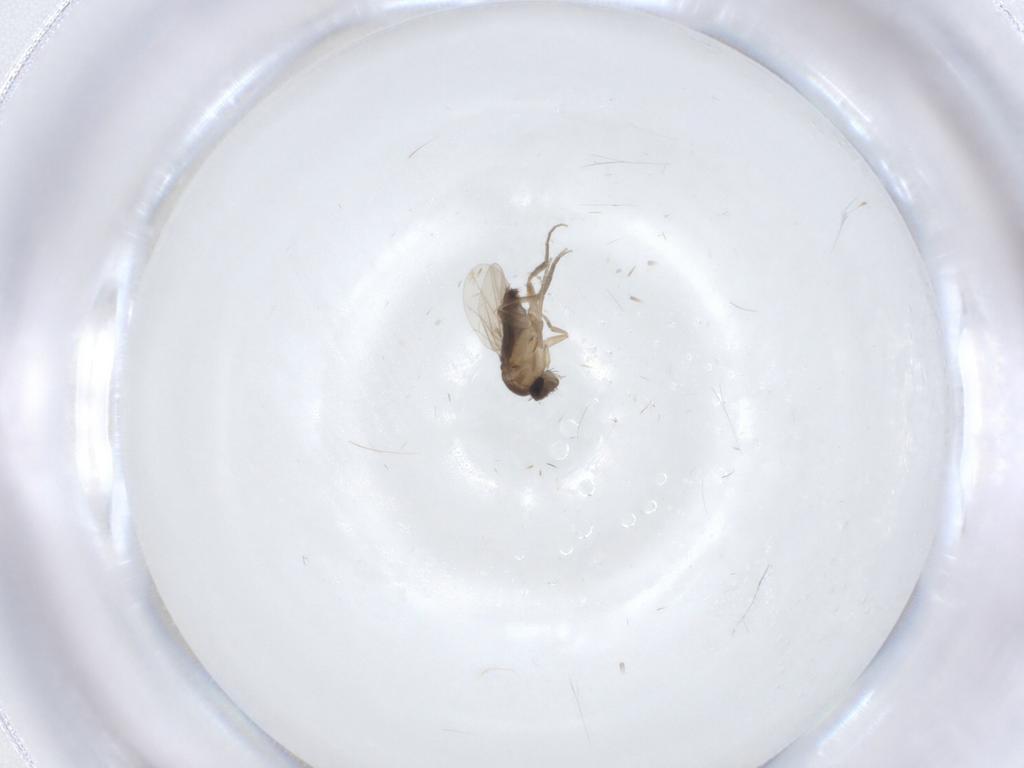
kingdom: Animalia
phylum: Arthropoda
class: Insecta
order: Diptera
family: Phoridae
